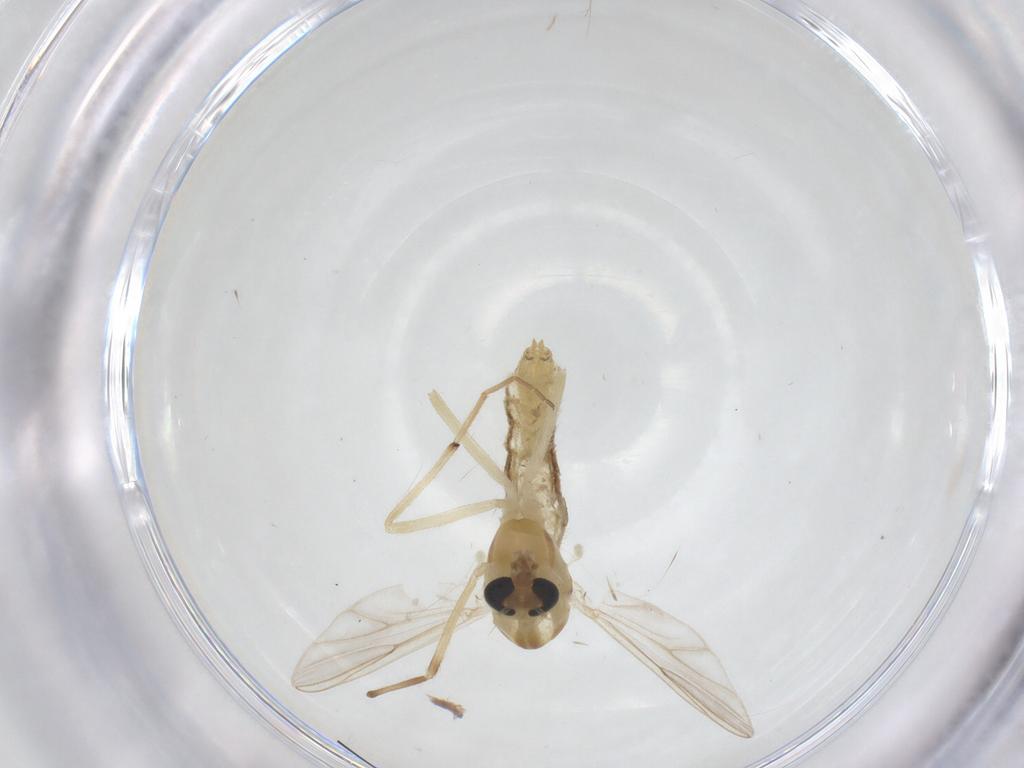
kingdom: Animalia
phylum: Arthropoda
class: Insecta
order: Diptera
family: Chironomidae
